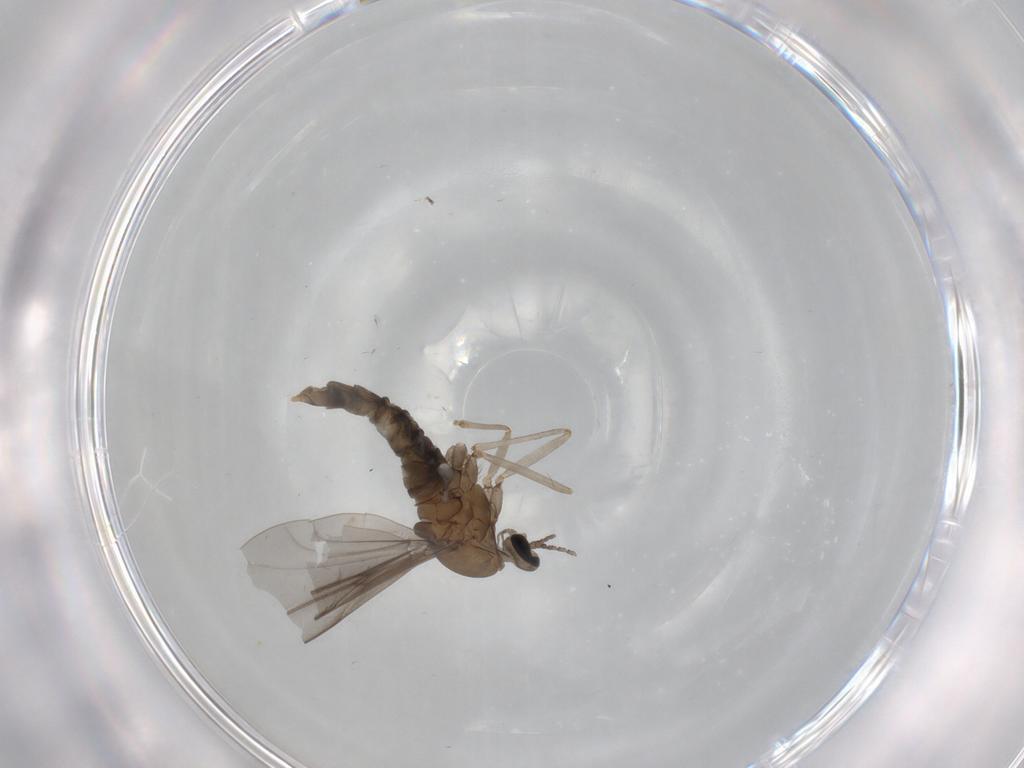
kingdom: Animalia
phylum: Arthropoda
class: Insecta
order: Diptera
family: Cecidomyiidae
